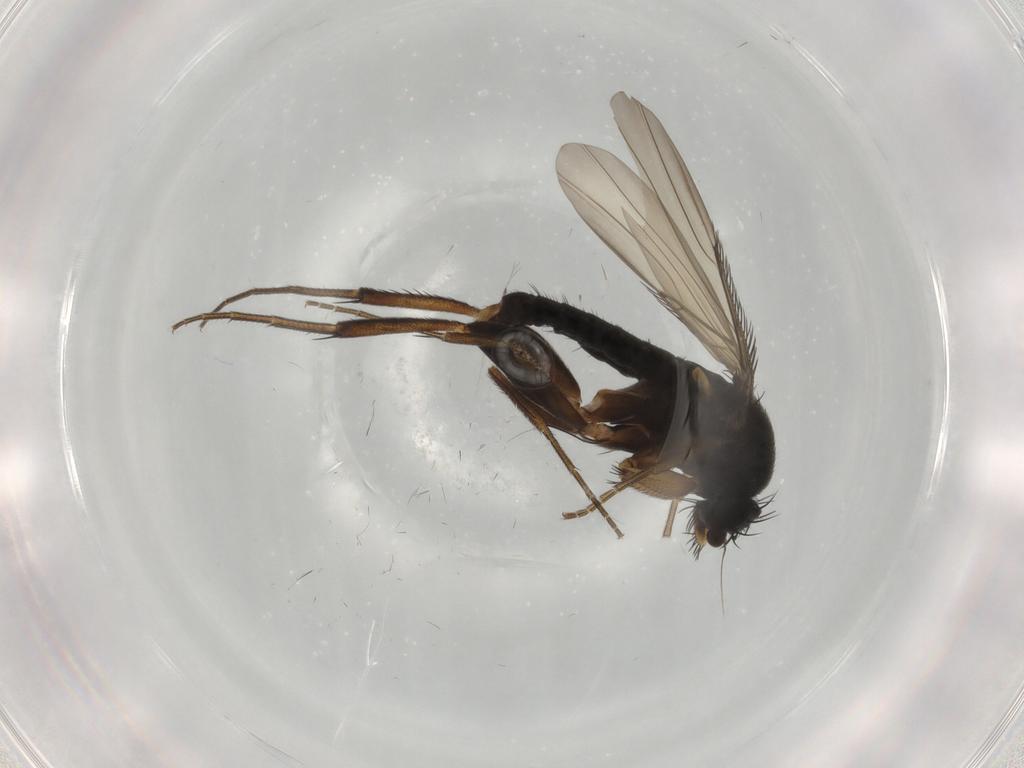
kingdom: Animalia
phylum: Arthropoda
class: Insecta
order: Diptera
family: Phoridae
